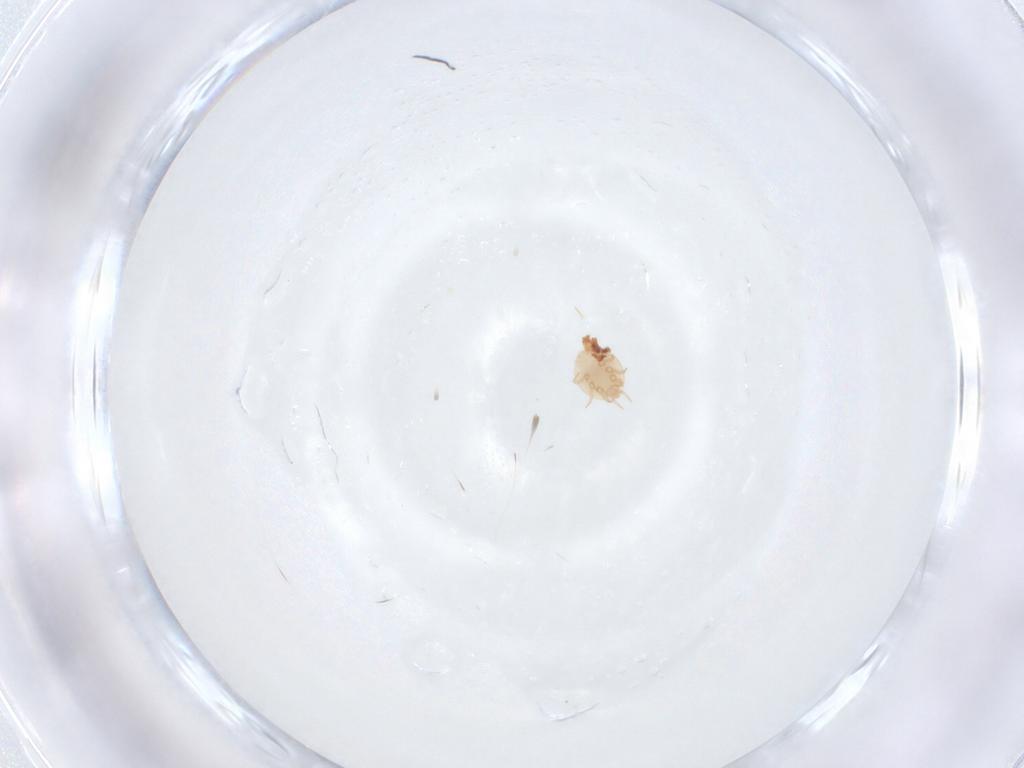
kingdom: Animalia
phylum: Arthropoda
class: Arachnida
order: Mesostigmata
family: Trematuridae
